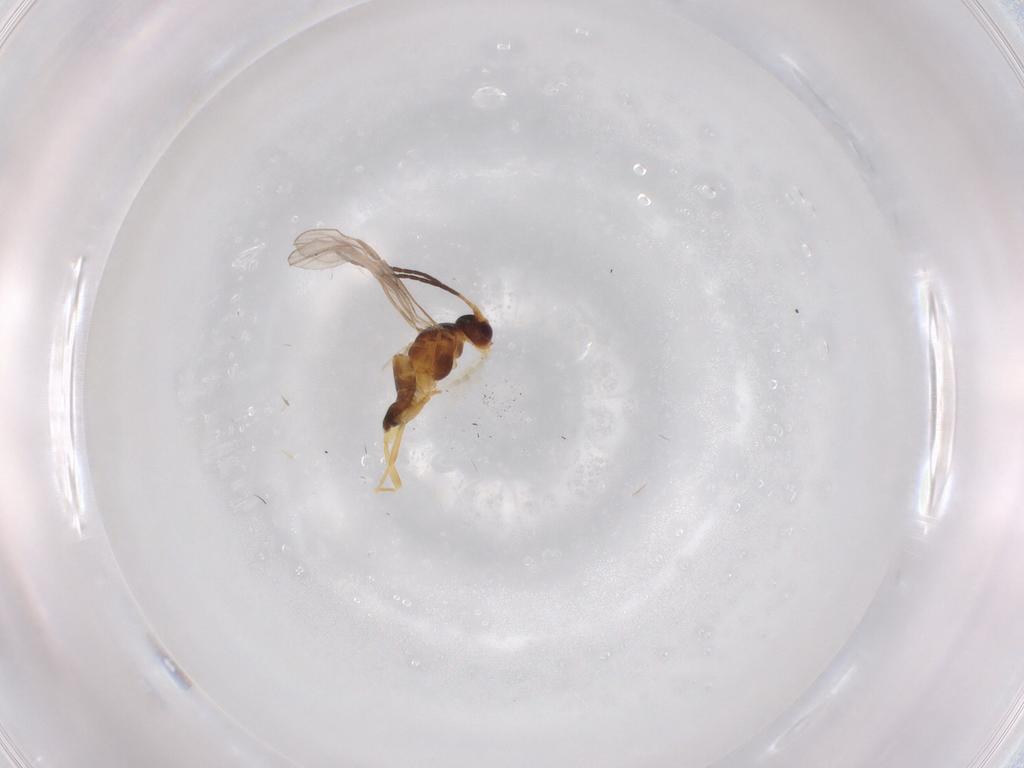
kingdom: Animalia
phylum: Arthropoda
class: Insecta
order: Hymenoptera
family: Braconidae
